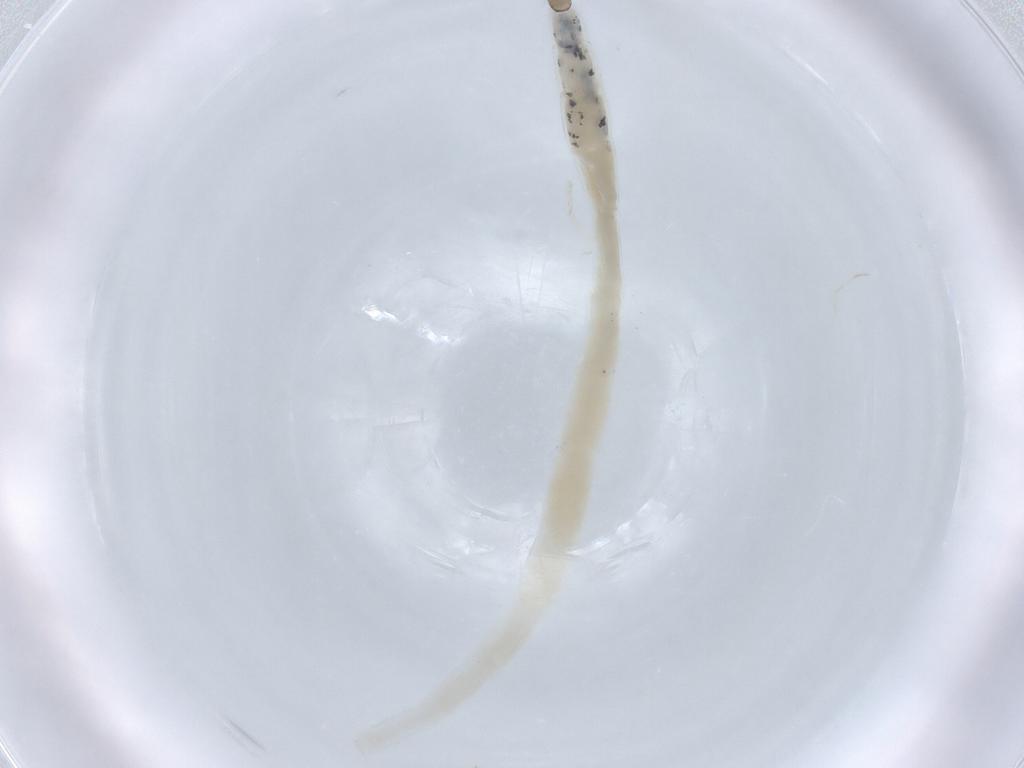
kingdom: Animalia
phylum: Arthropoda
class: Insecta
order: Diptera
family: Ceratopogonidae
